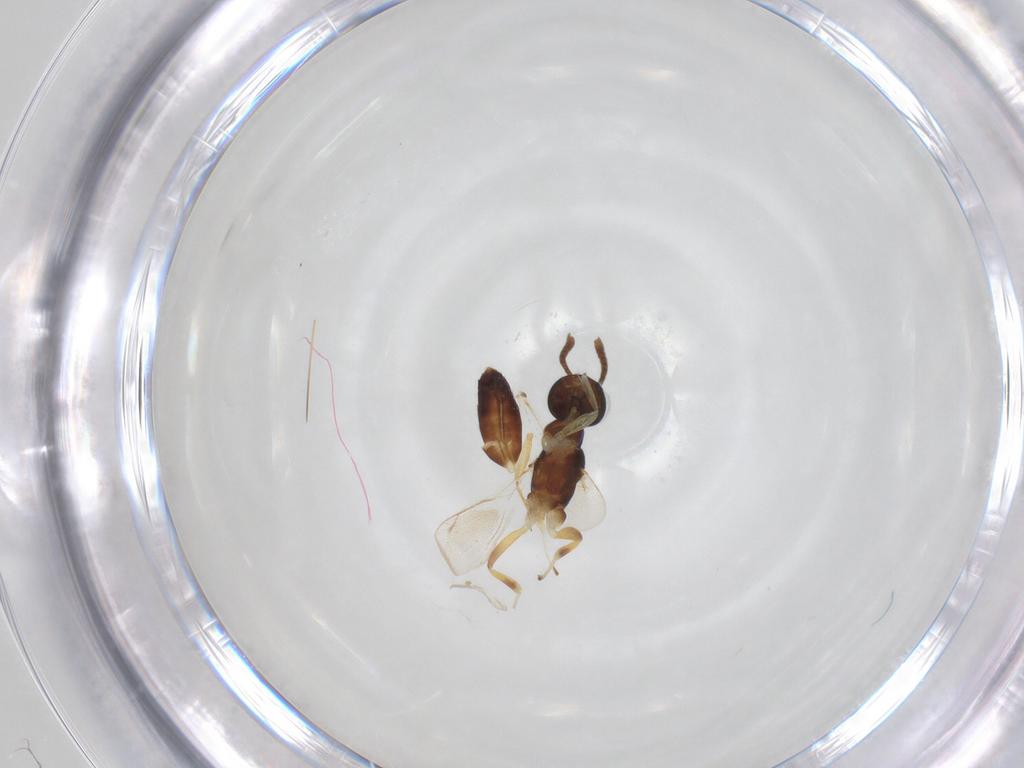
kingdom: Animalia
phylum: Arthropoda
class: Insecta
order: Hymenoptera
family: Eupelmidae
